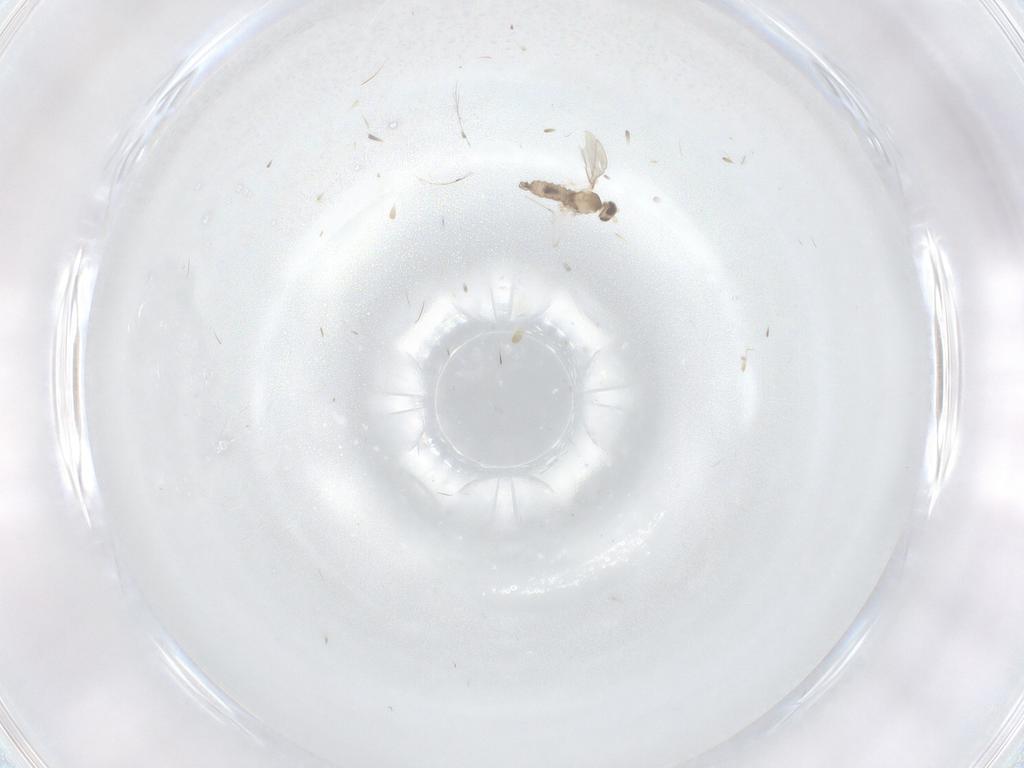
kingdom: Animalia
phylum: Arthropoda
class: Insecta
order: Diptera
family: Cecidomyiidae
